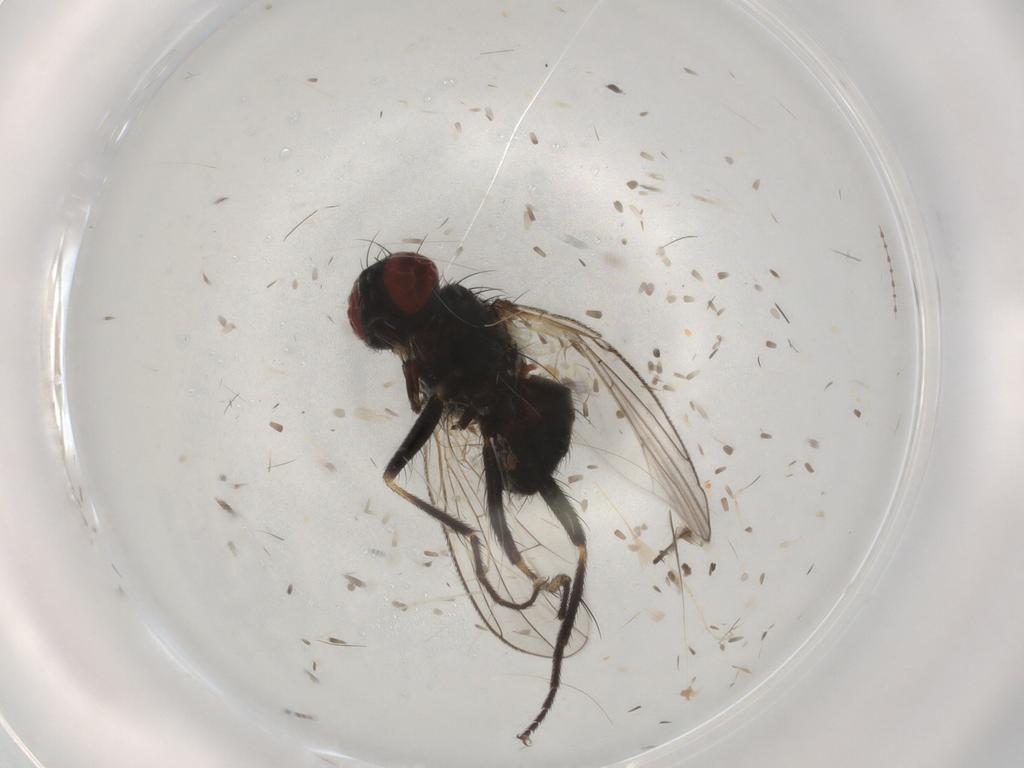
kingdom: Animalia
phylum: Arthropoda
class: Insecta
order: Diptera
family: Muscidae
